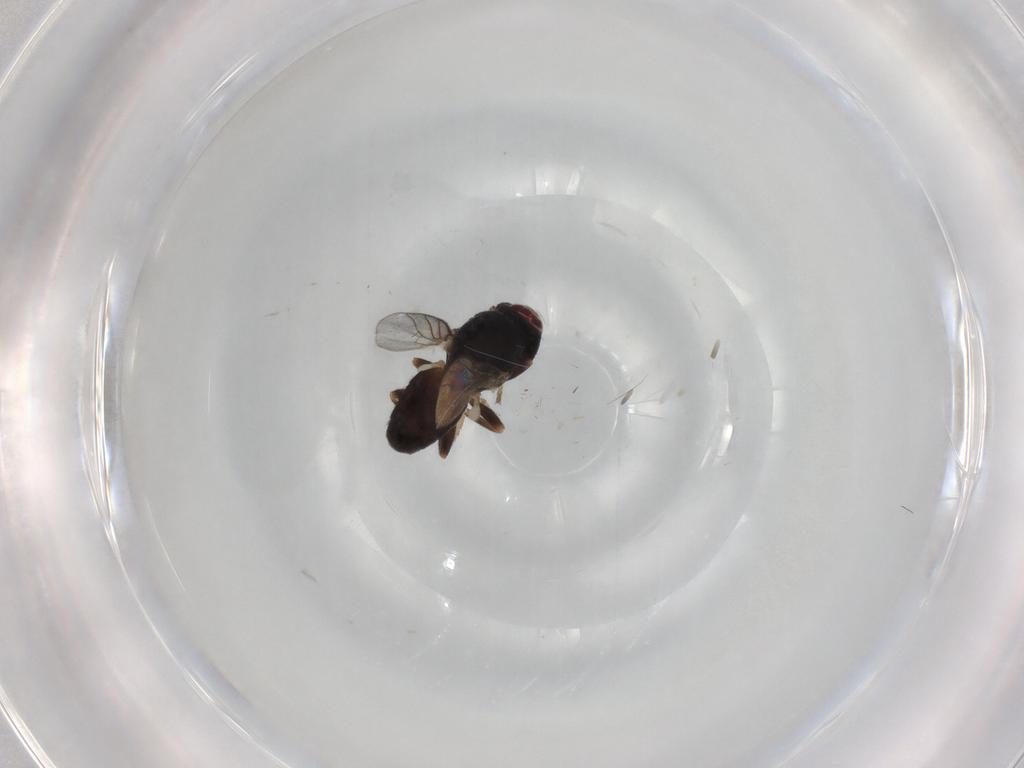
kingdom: Animalia
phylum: Arthropoda
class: Insecta
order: Diptera
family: Chloropidae
